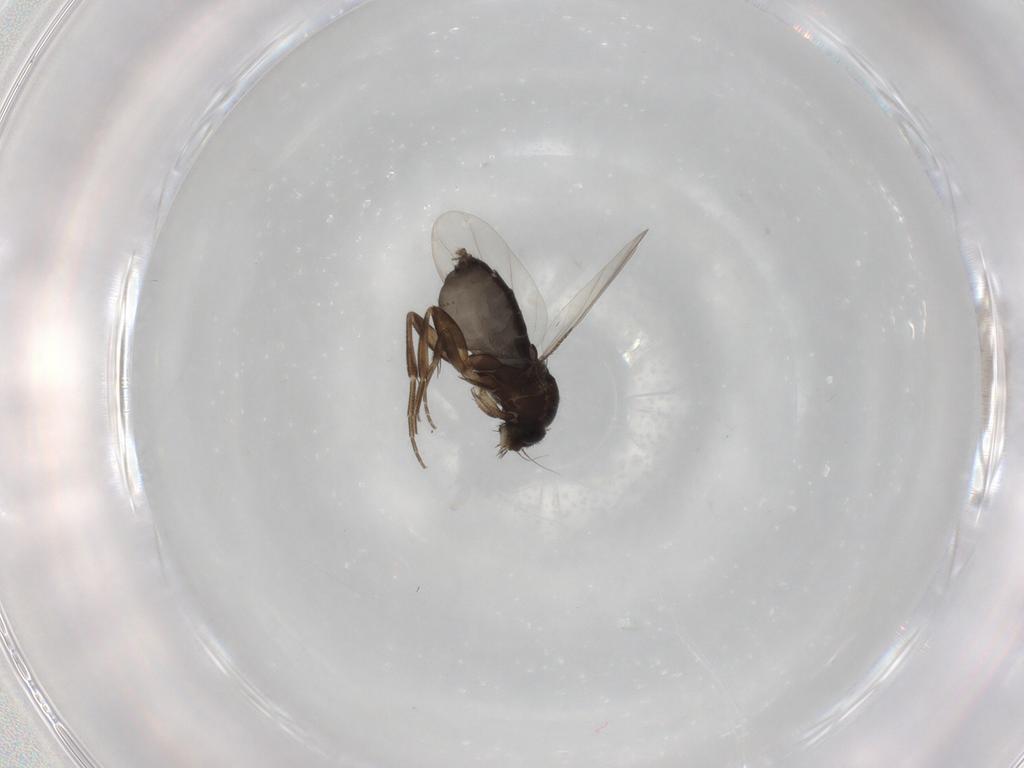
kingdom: Animalia
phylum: Arthropoda
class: Insecta
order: Diptera
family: Phoridae
